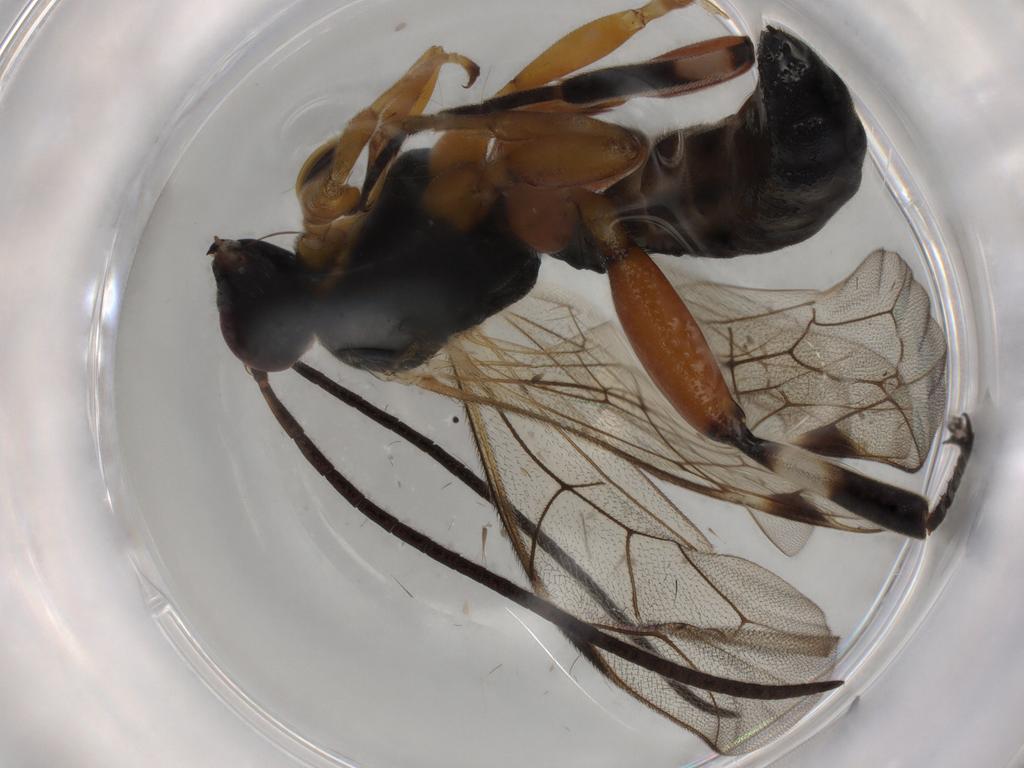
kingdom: Animalia
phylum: Arthropoda
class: Insecta
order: Hymenoptera
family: Ichneumonidae
